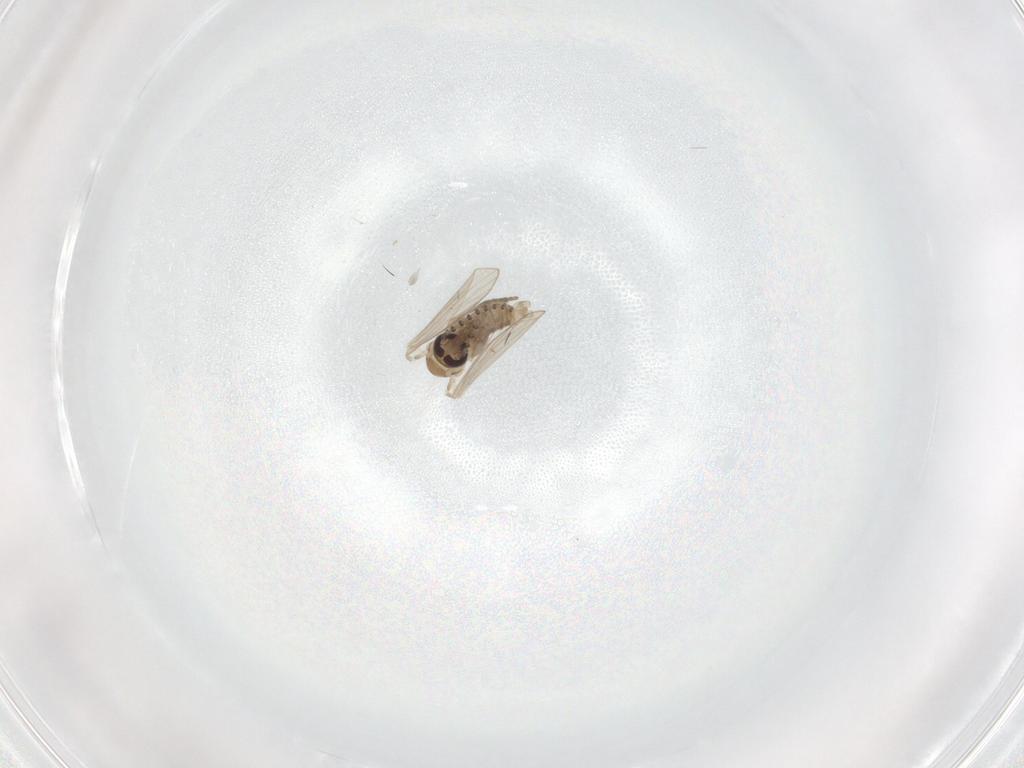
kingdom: Animalia
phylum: Arthropoda
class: Insecta
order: Diptera
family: Psychodidae
